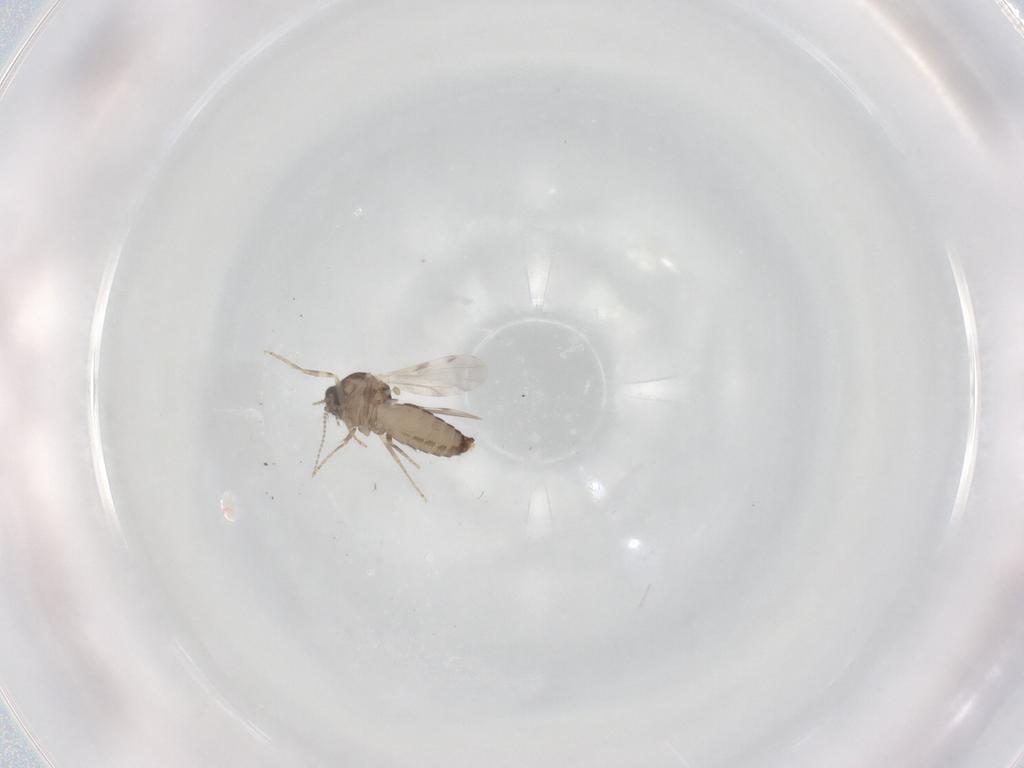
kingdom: Animalia
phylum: Arthropoda
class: Insecta
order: Diptera
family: Ceratopogonidae
